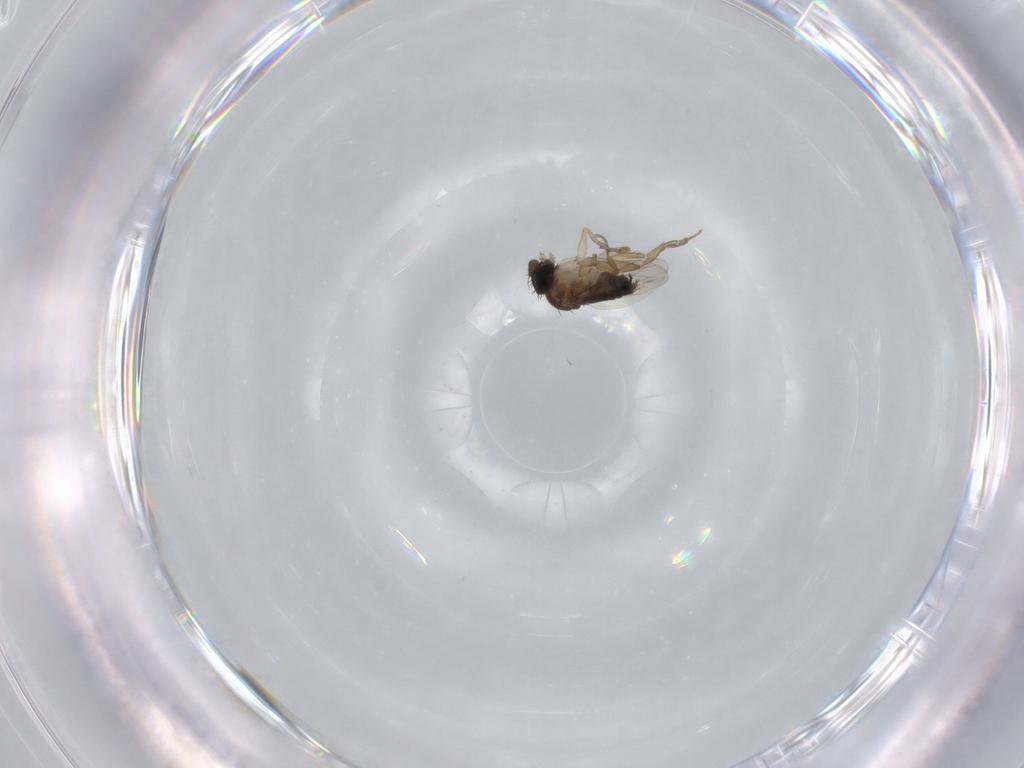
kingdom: Animalia
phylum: Arthropoda
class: Insecta
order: Diptera
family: Phoridae
